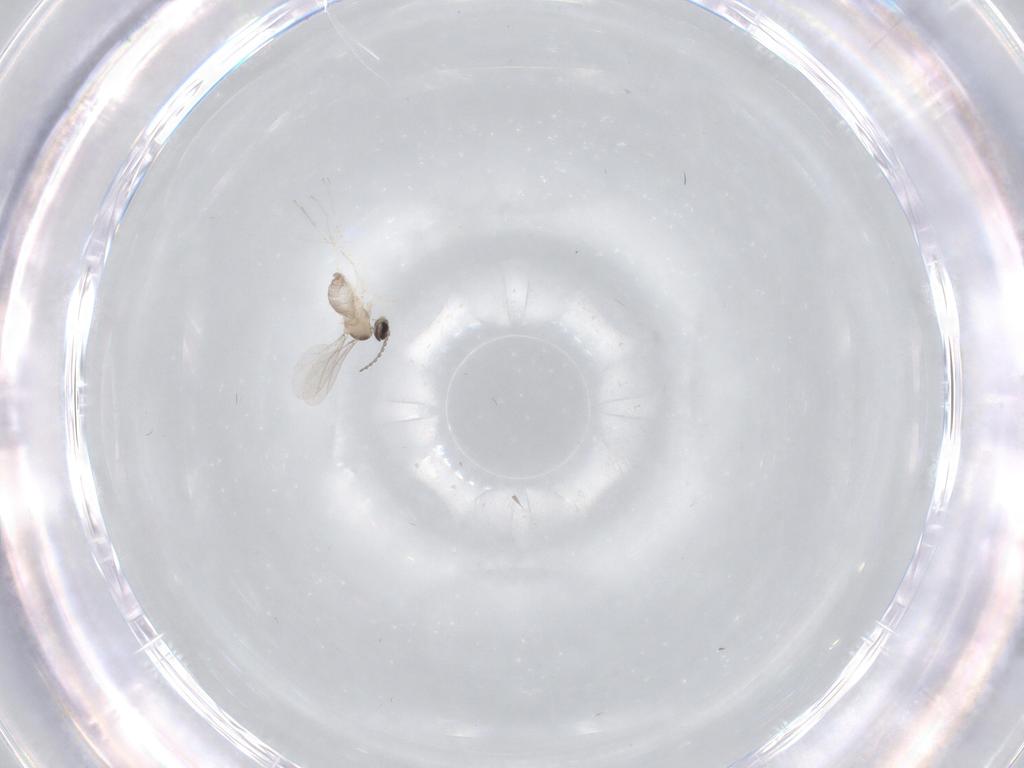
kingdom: Animalia
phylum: Arthropoda
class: Insecta
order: Diptera
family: Cecidomyiidae
